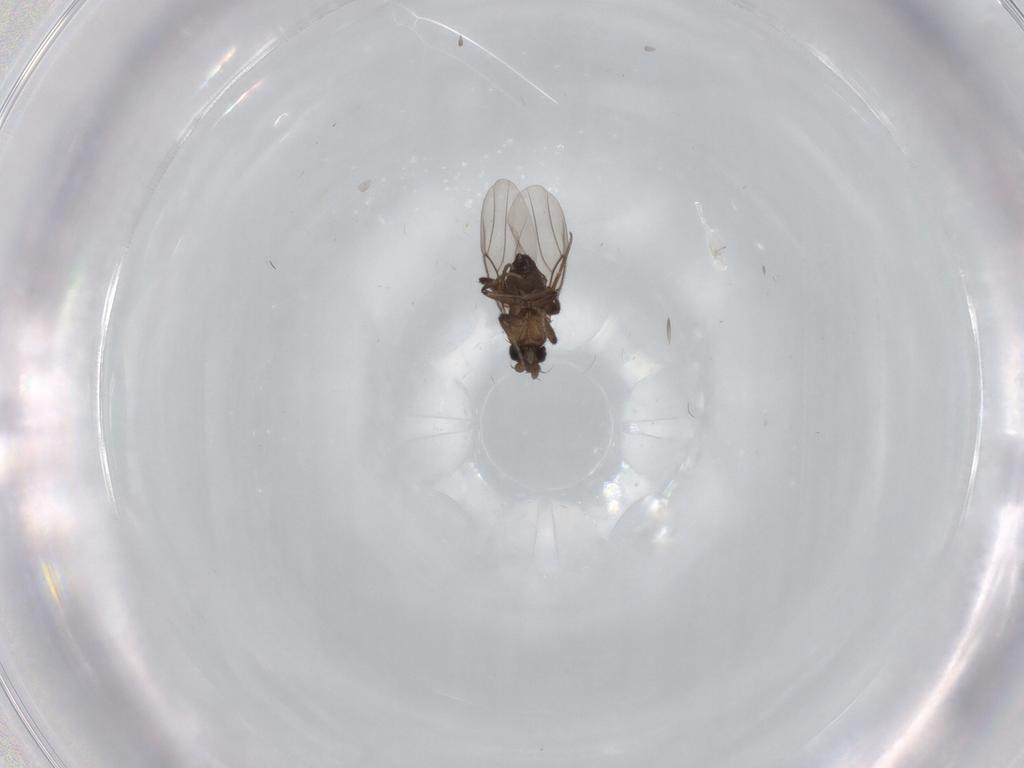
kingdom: Animalia
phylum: Arthropoda
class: Insecta
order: Diptera
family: Phoridae
